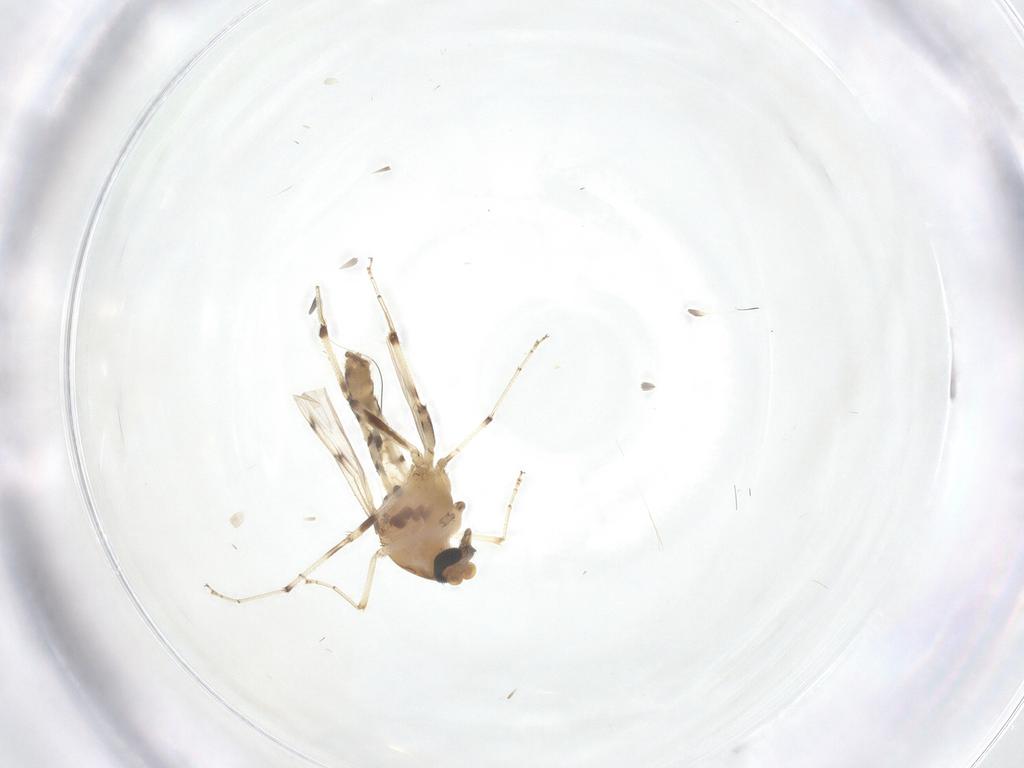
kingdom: Animalia
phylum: Arthropoda
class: Insecta
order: Diptera
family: Ceratopogonidae
